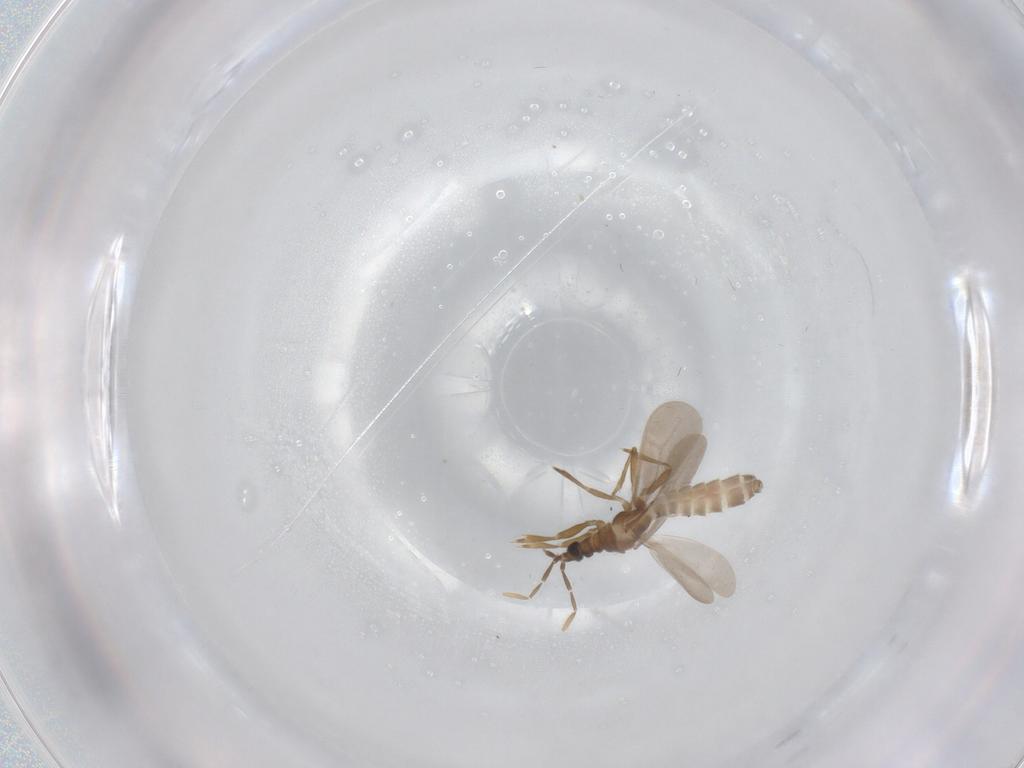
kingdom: Animalia
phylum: Arthropoda
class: Insecta
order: Hemiptera
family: Enicocephalidae
